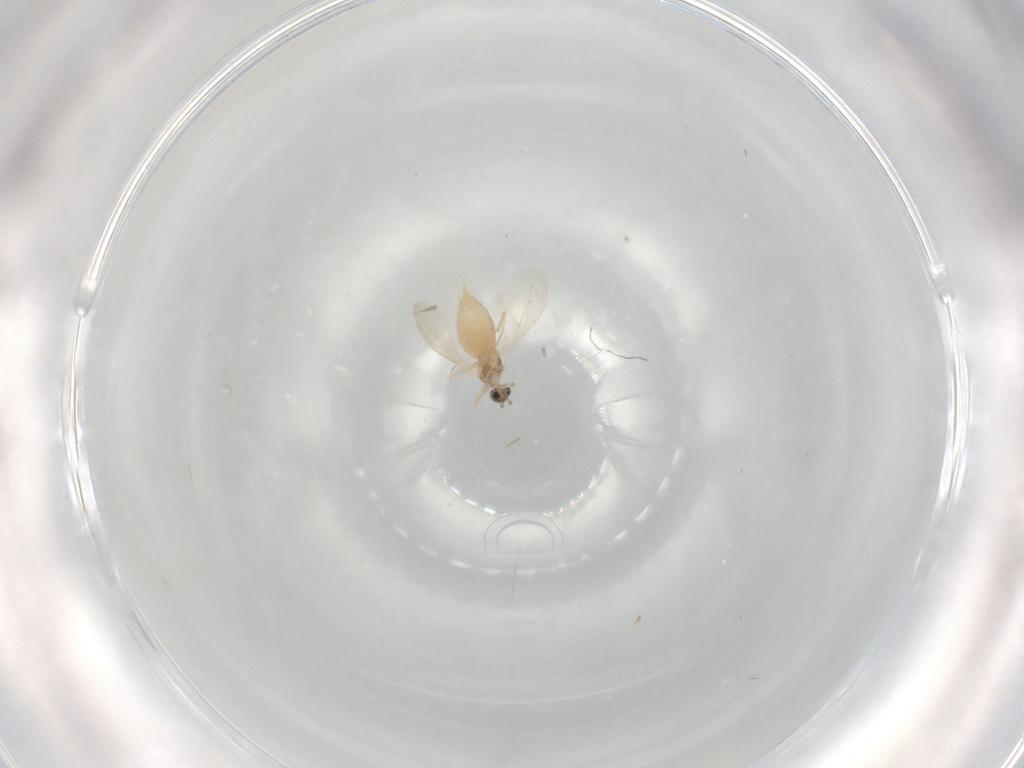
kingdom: Animalia
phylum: Arthropoda
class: Insecta
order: Diptera
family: Cecidomyiidae
